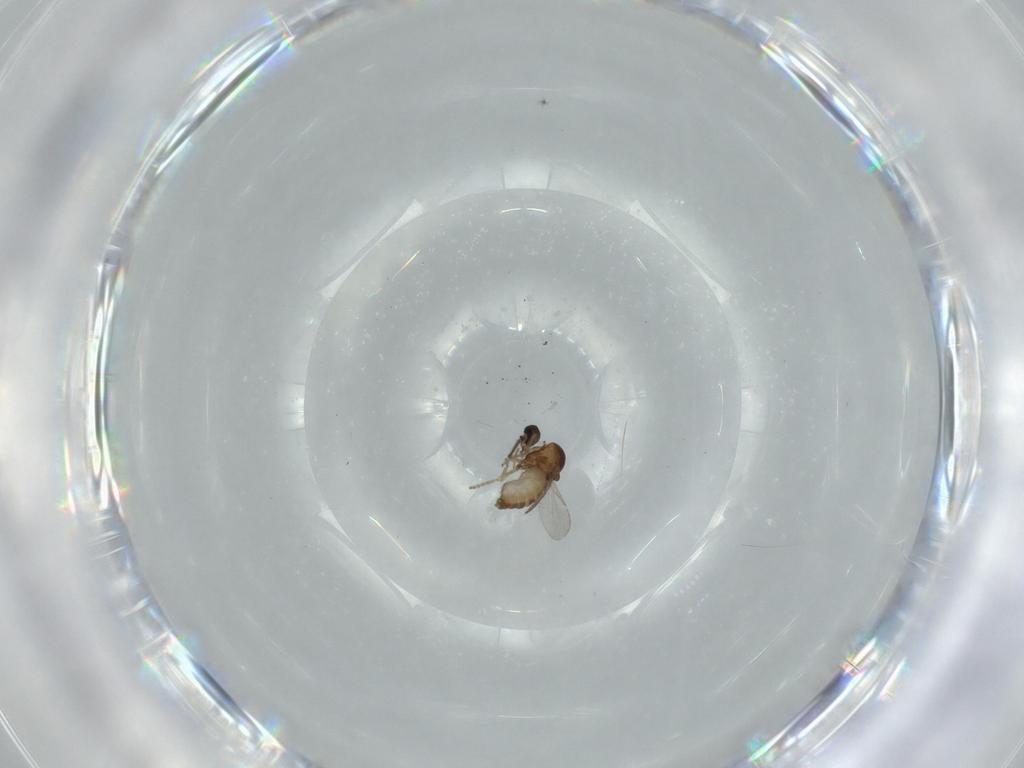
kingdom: Animalia
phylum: Arthropoda
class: Insecta
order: Diptera
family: Ceratopogonidae
